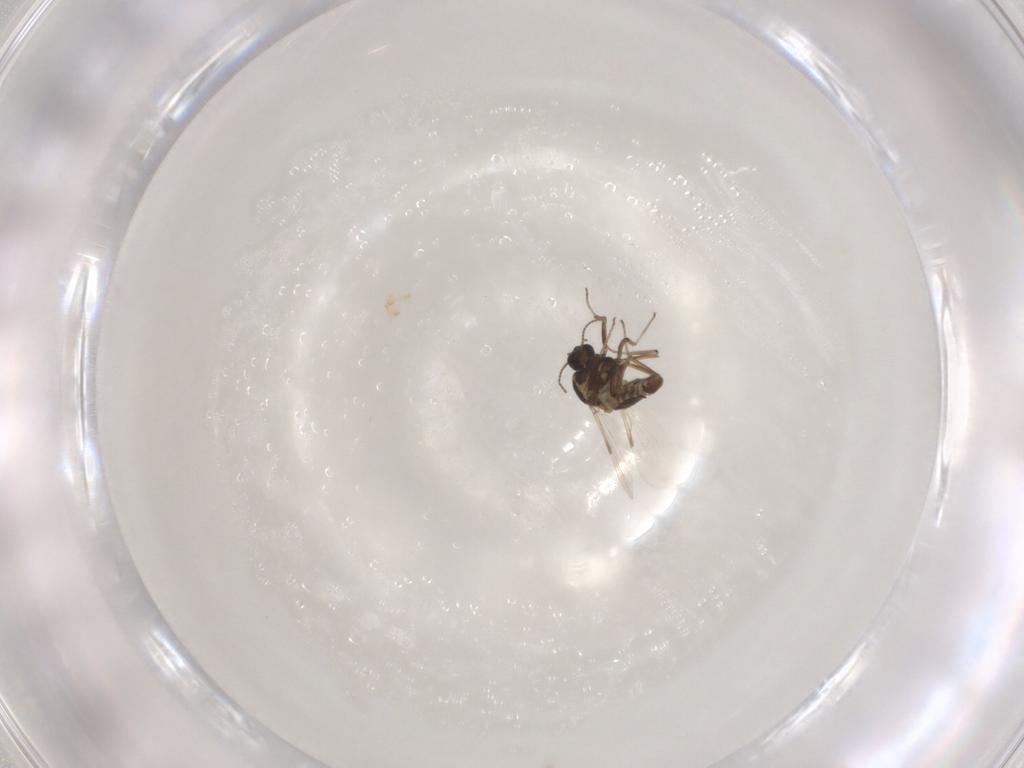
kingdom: Animalia
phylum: Arthropoda
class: Insecta
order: Diptera
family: Ceratopogonidae
